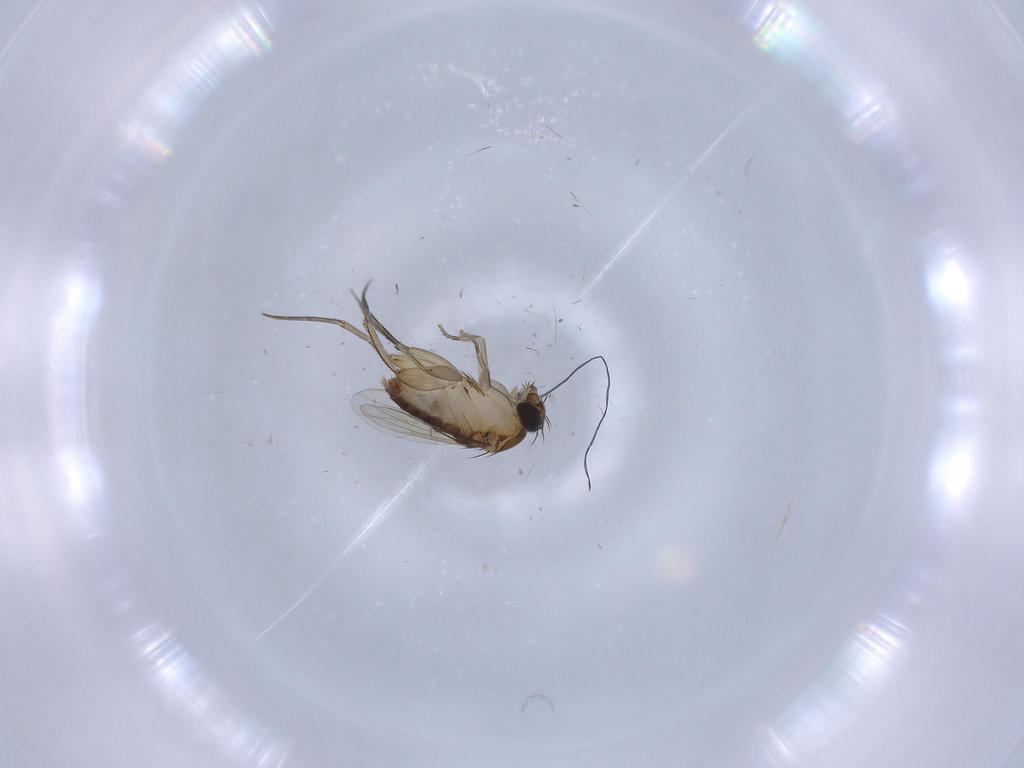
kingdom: Animalia
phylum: Arthropoda
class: Insecta
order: Diptera
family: Phoridae
